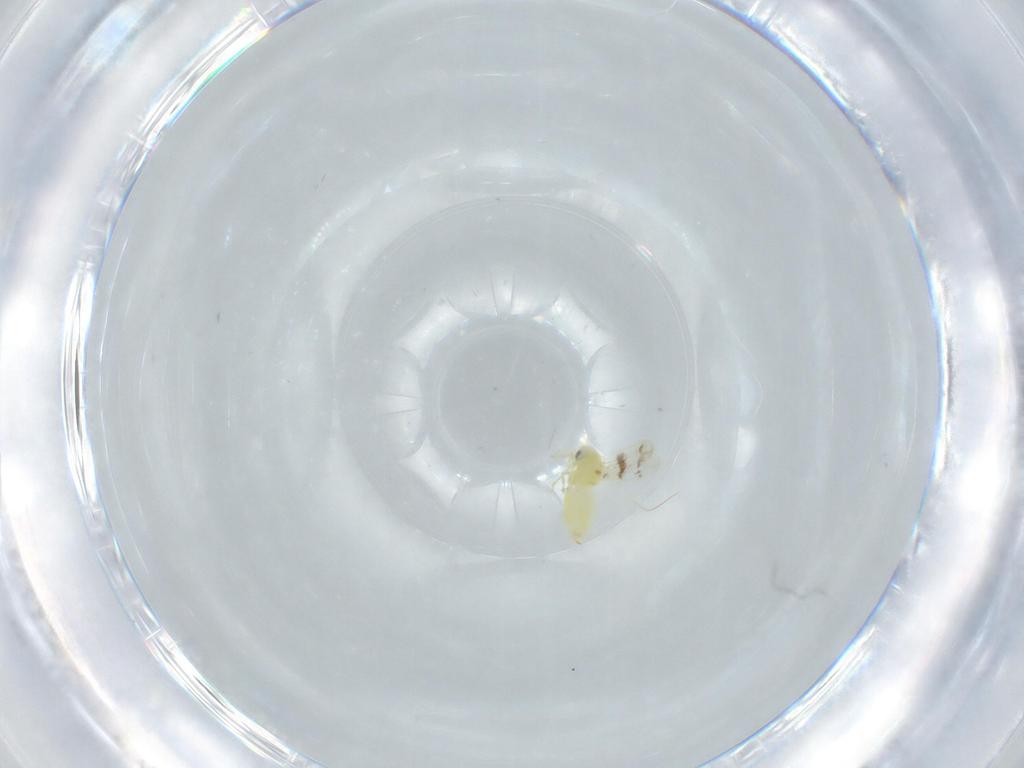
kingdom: Animalia
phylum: Arthropoda
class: Insecta
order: Hemiptera
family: Aleyrodidae
